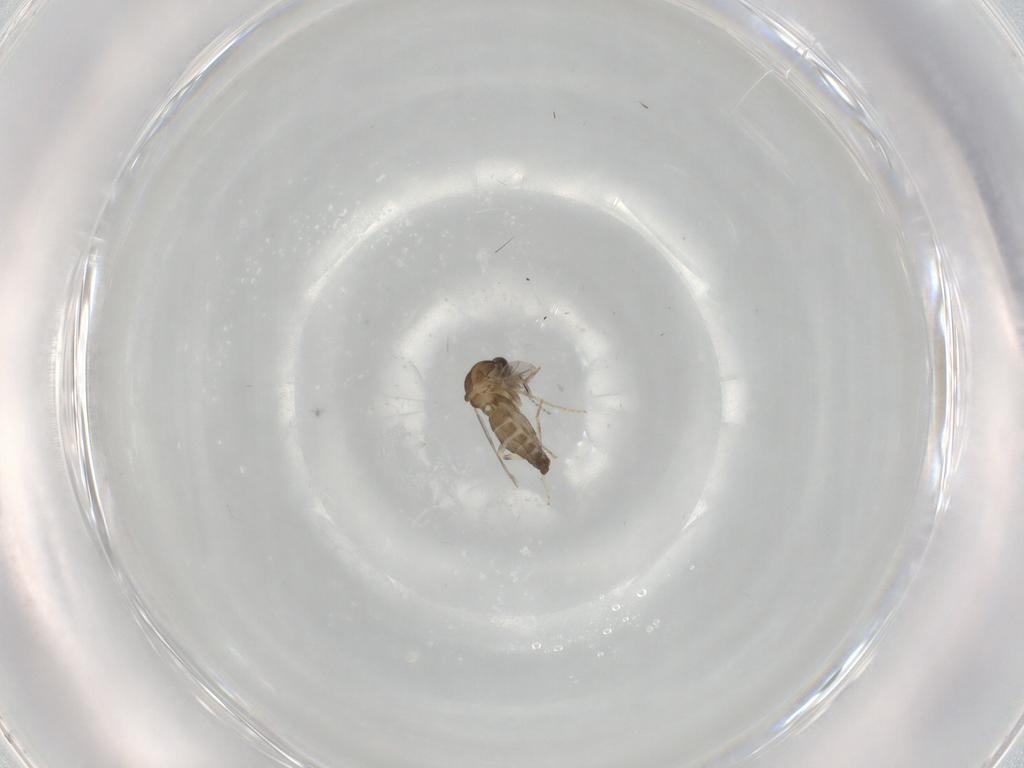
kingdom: Animalia
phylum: Arthropoda
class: Insecta
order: Diptera
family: Ceratopogonidae
